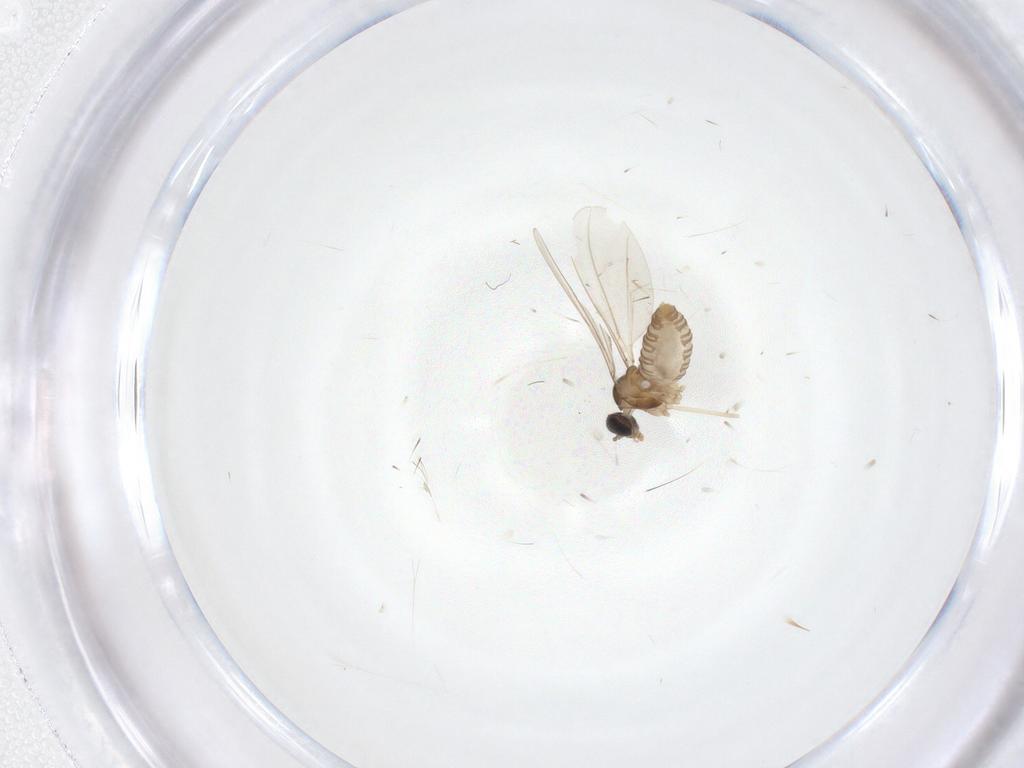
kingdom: Animalia
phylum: Arthropoda
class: Insecta
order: Diptera
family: Cecidomyiidae
